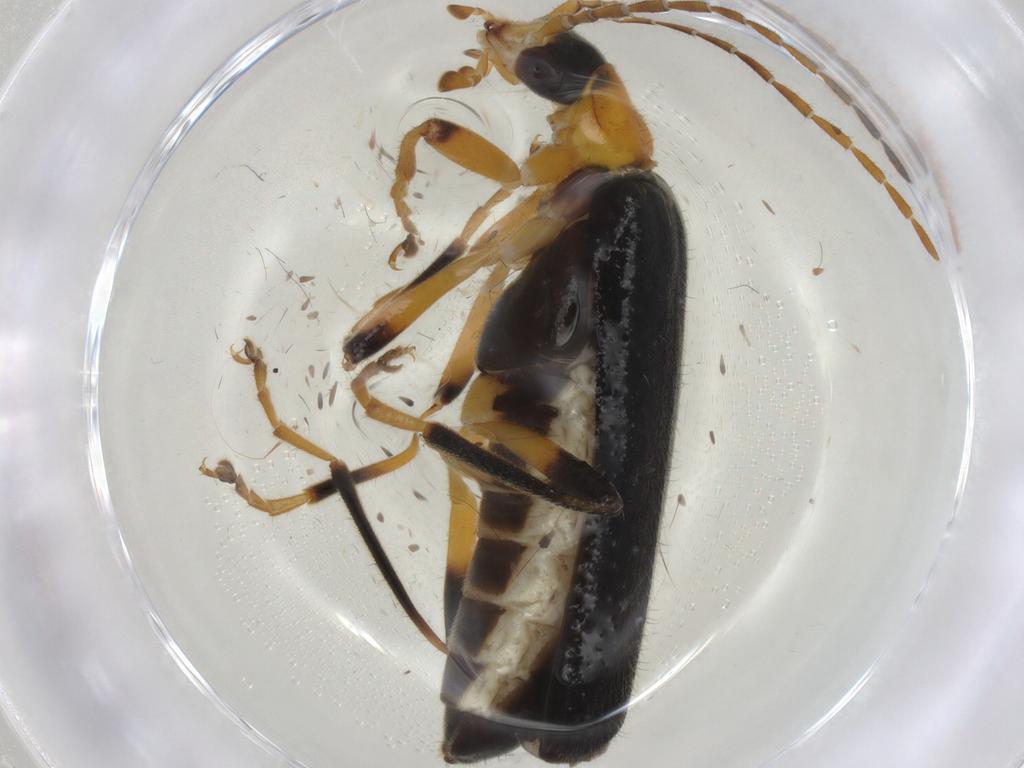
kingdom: Animalia
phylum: Arthropoda
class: Insecta
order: Coleoptera
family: Cantharidae
